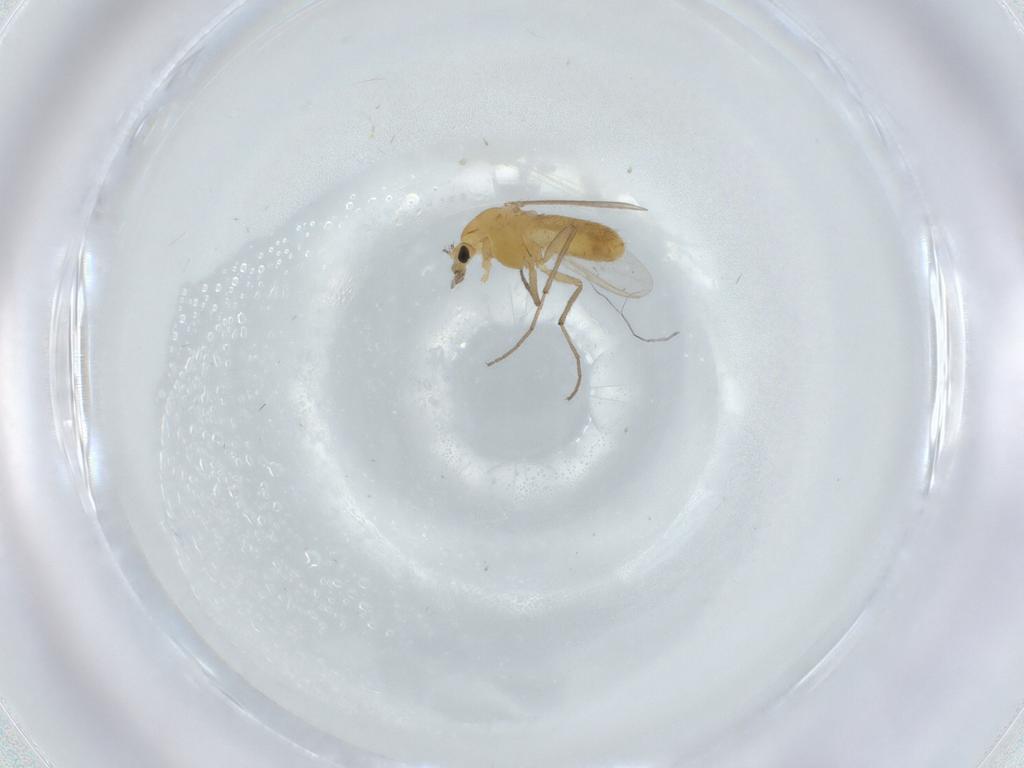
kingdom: Animalia
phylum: Arthropoda
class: Insecta
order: Diptera
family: Chironomidae
